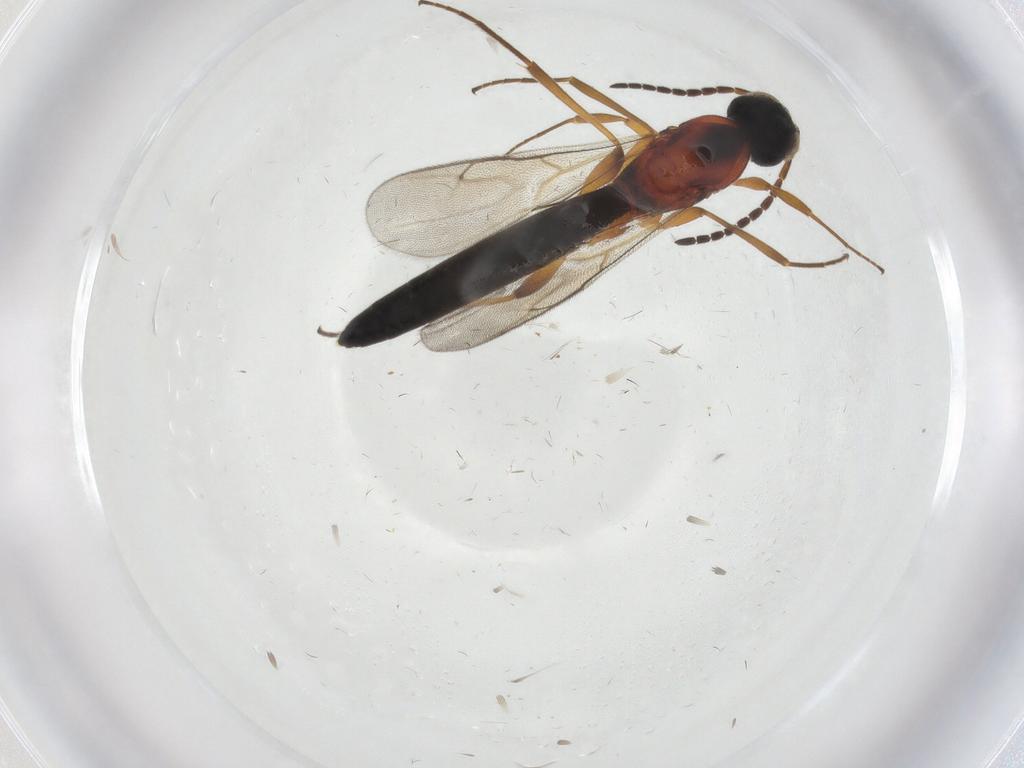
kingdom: Animalia
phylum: Arthropoda
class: Insecta
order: Hymenoptera
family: Scelionidae
